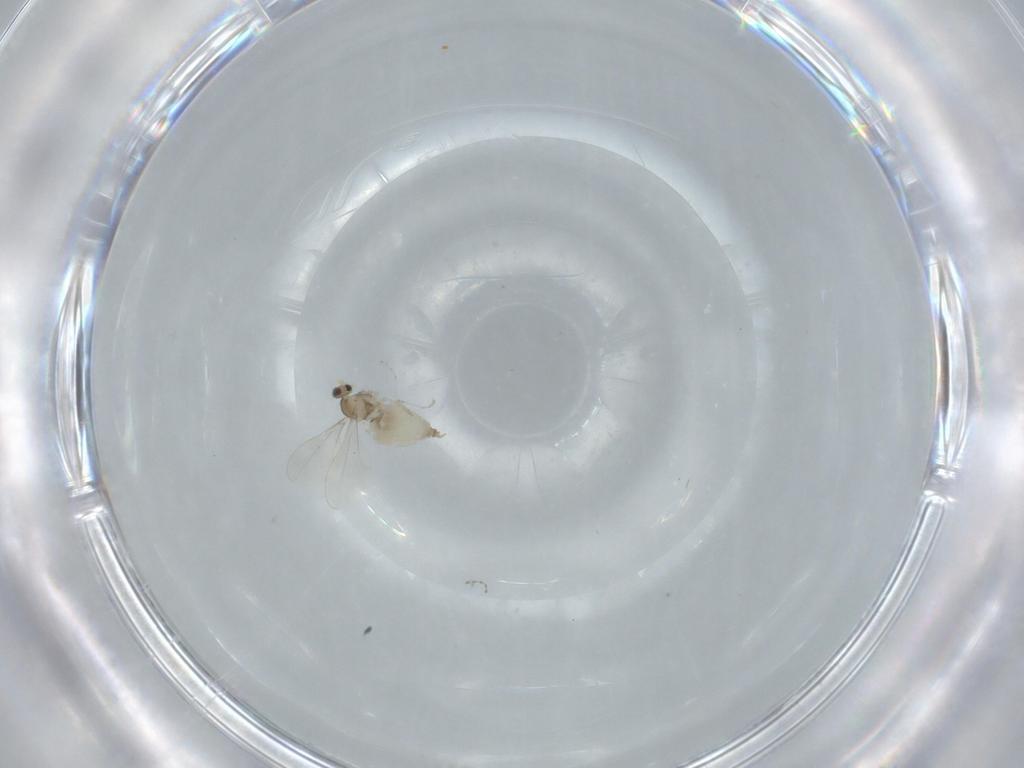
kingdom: Animalia
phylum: Arthropoda
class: Insecta
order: Diptera
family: Cecidomyiidae
